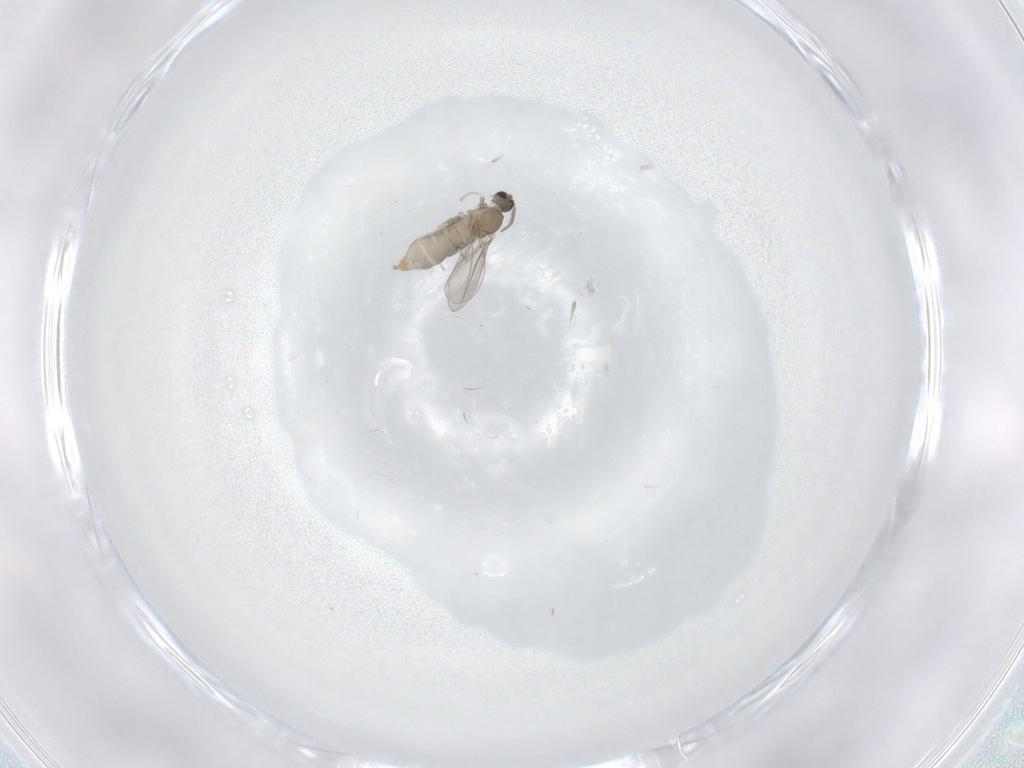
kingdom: Animalia
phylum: Arthropoda
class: Insecta
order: Diptera
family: Cecidomyiidae
